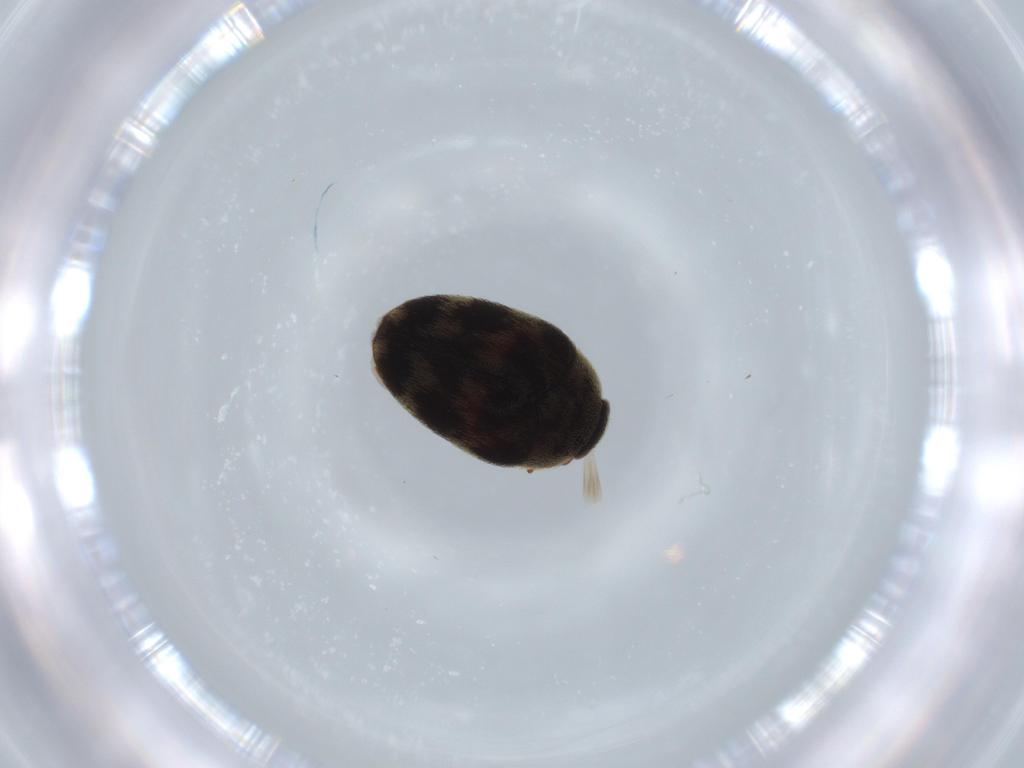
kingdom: Animalia
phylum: Arthropoda
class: Insecta
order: Coleoptera
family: Dermestidae
